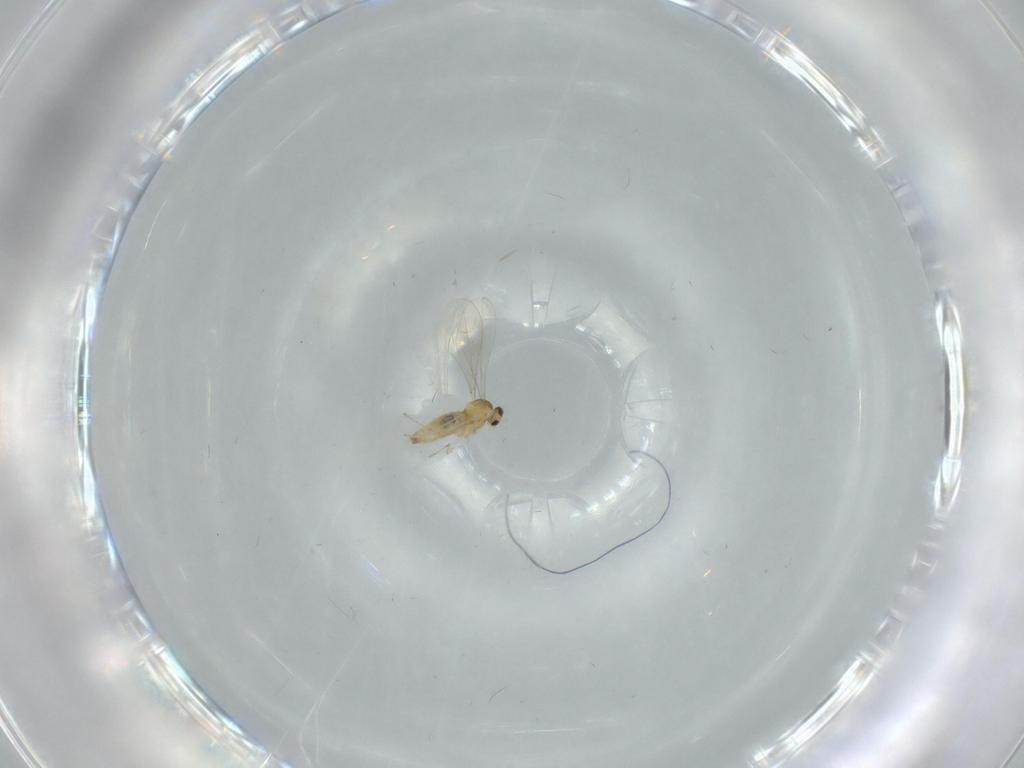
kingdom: Animalia
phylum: Arthropoda
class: Insecta
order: Diptera
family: Cecidomyiidae
